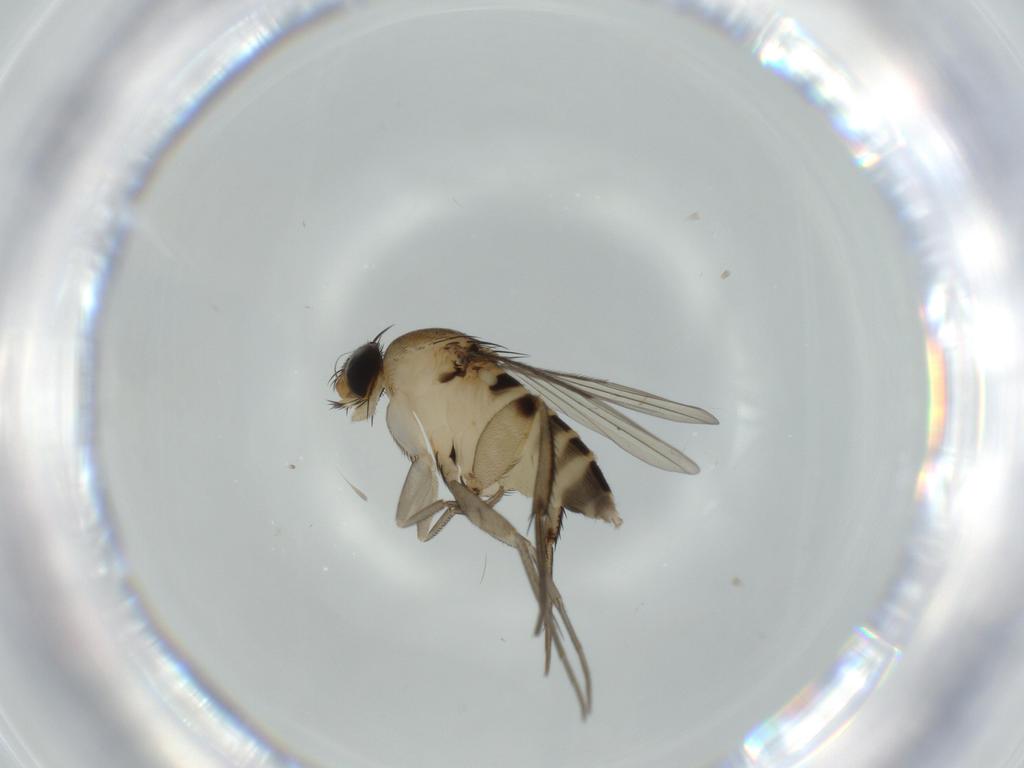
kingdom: Animalia
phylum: Arthropoda
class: Insecta
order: Diptera
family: Phoridae
